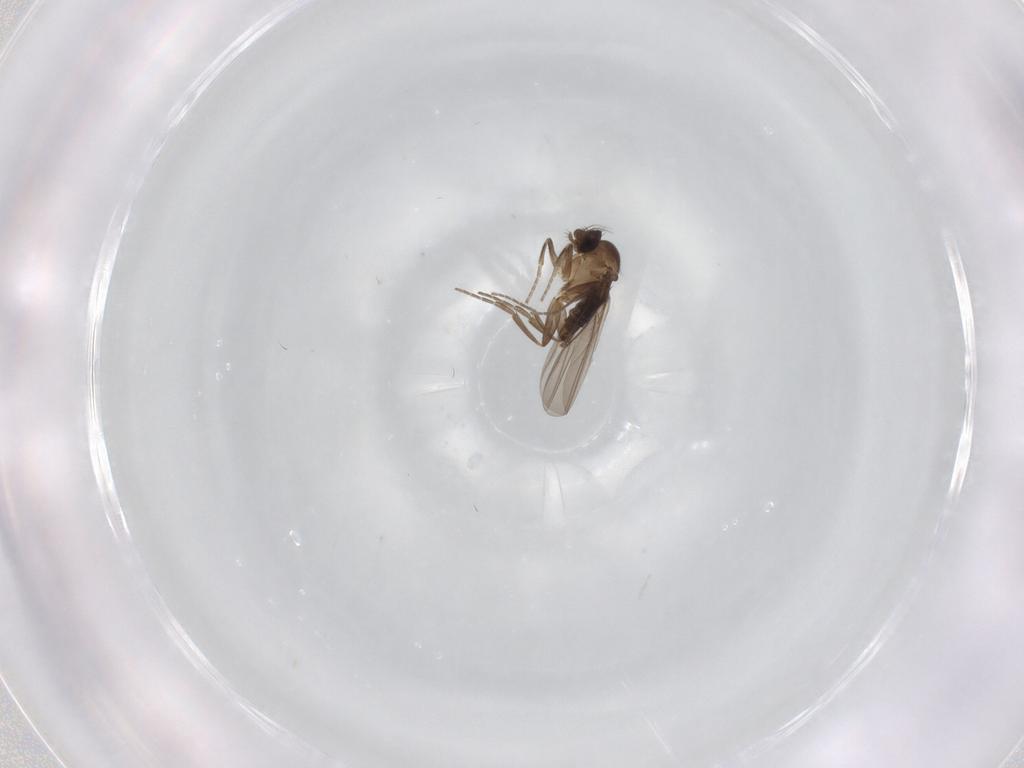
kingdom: Animalia
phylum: Arthropoda
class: Insecta
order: Diptera
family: Phoridae
